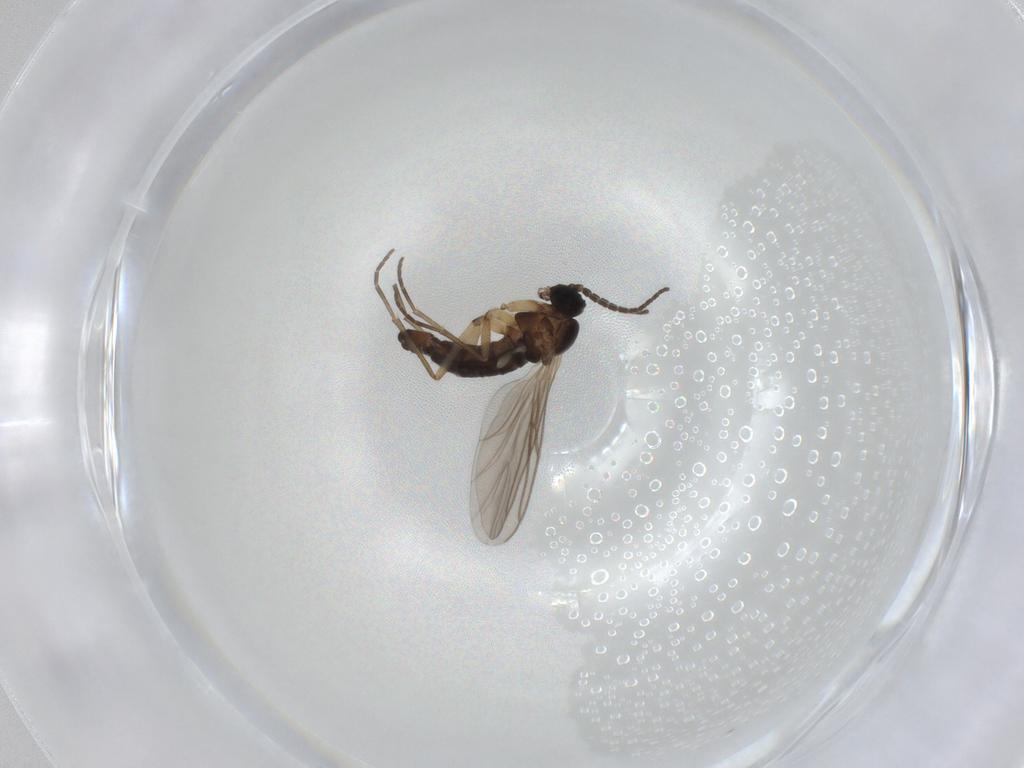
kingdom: Animalia
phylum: Arthropoda
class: Insecta
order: Diptera
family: Sciaridae
